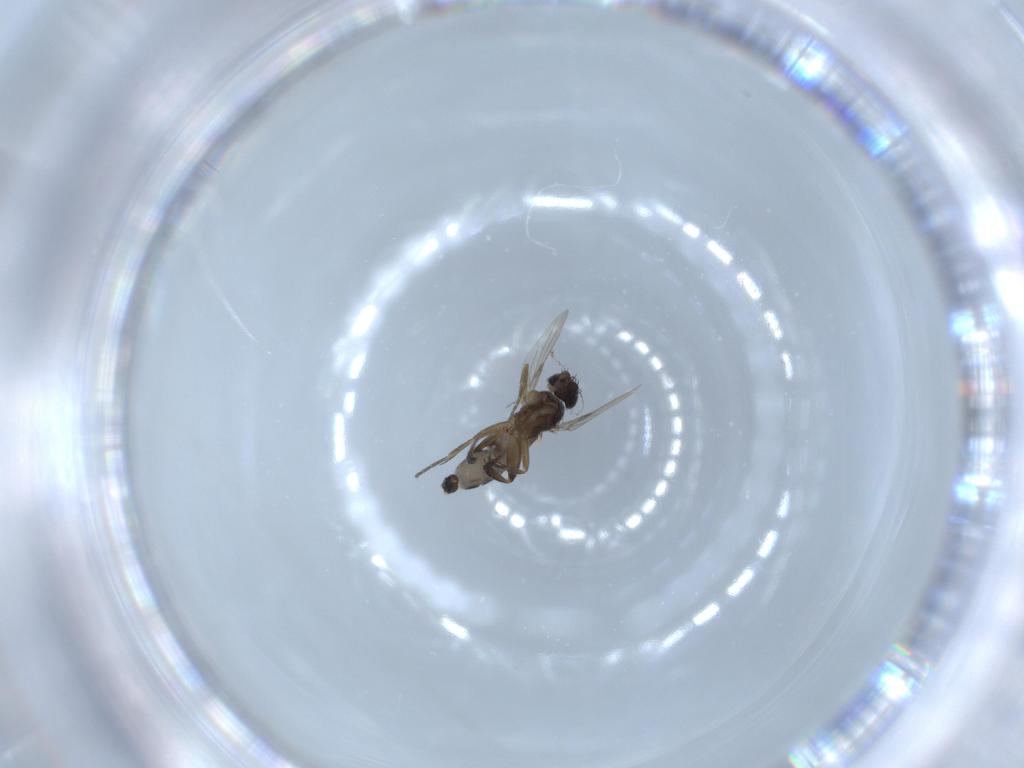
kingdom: Animalia
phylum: Arthropoda
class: Insecta
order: Diptera
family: Phoridae
